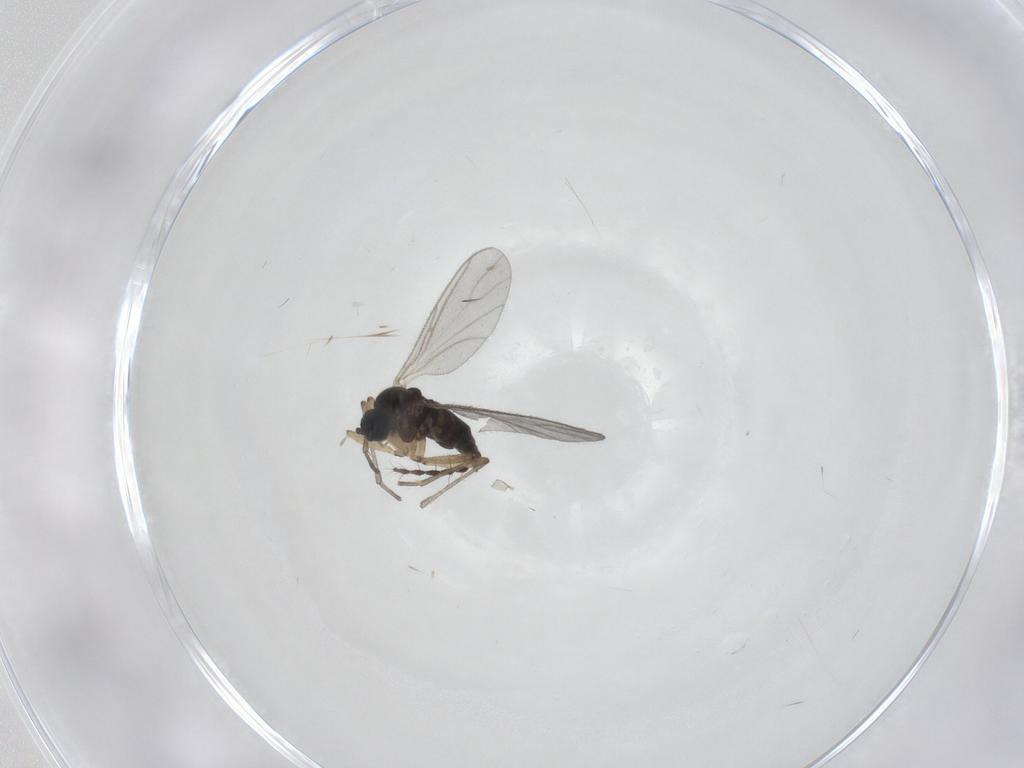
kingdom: Animalia
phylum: Arthropoda
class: Insecta
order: Diptera
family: Sciaridae
